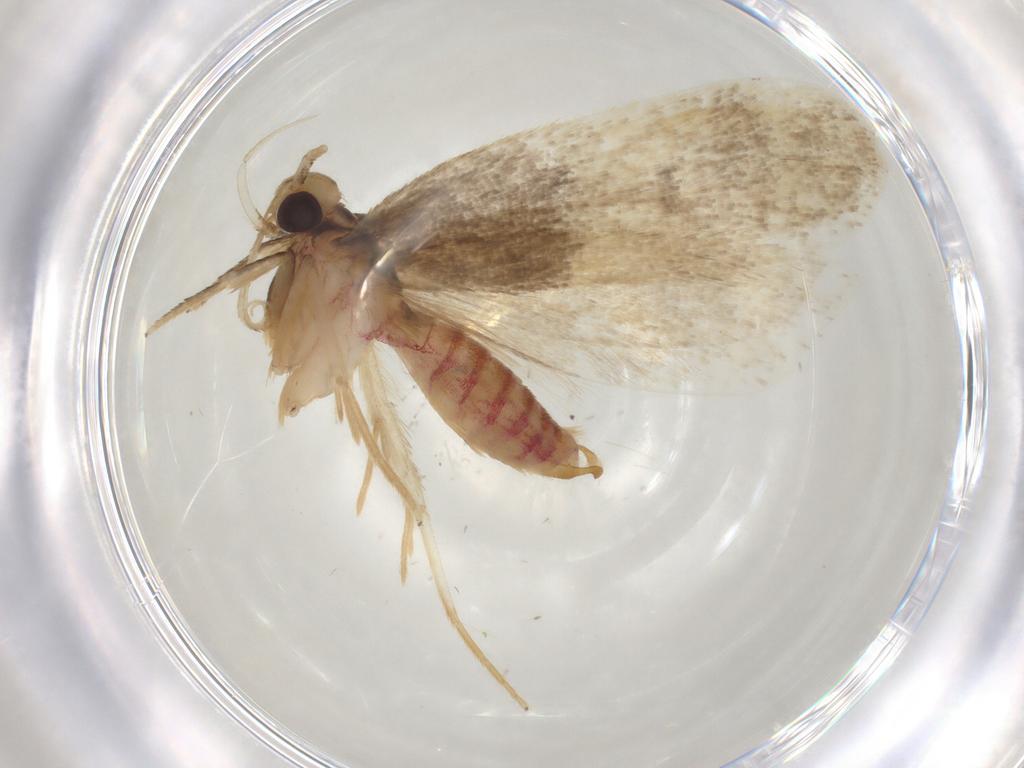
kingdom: Animalia
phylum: Arthropoda
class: Insecta
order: Lepidoptera
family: Lecithoceridae
